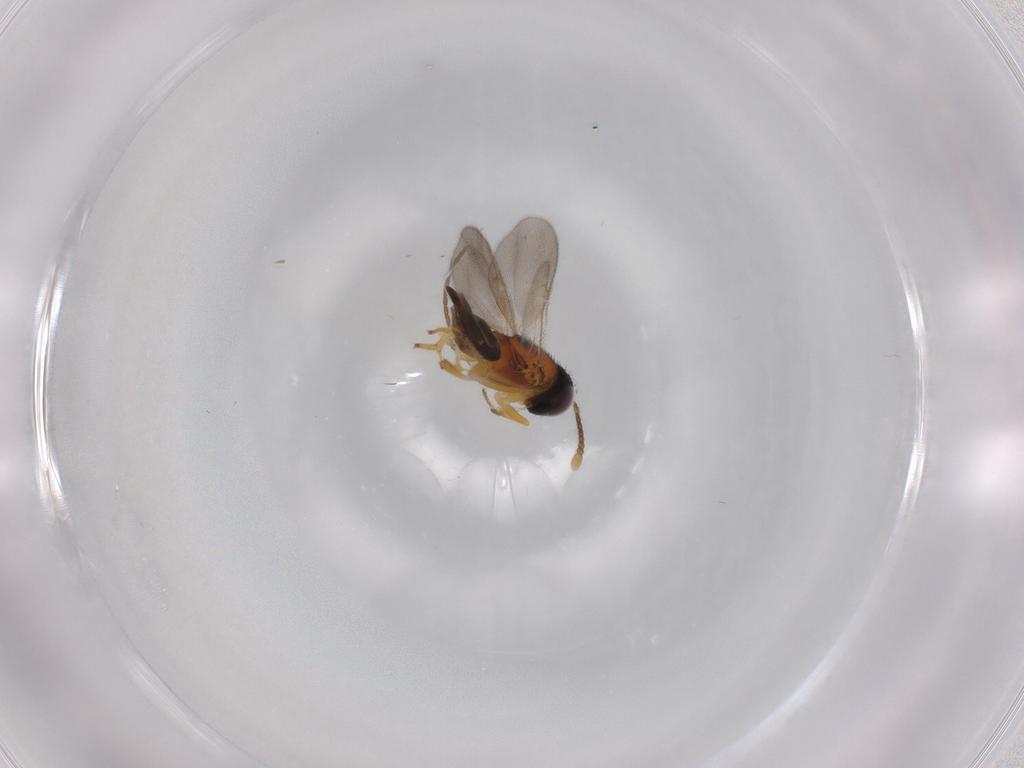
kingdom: Animalia
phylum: Arthropoda
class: Insecta
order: Hymenoptera
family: Ichneumonidae
